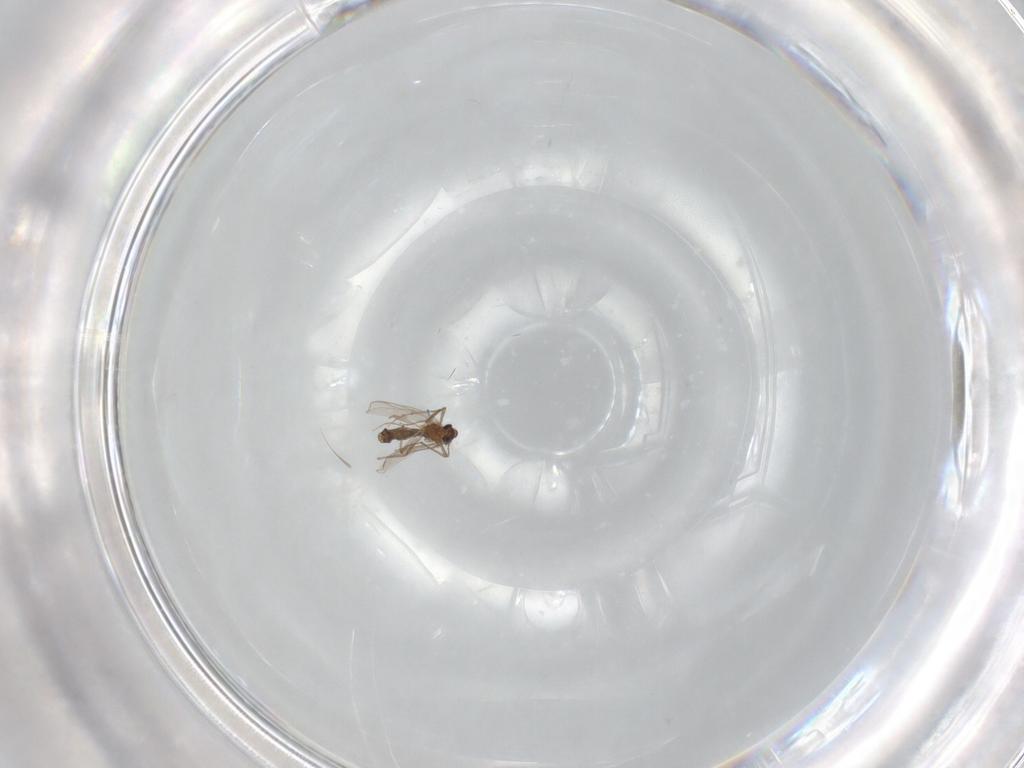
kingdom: Animalia
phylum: Arthropoda
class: Insecta
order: Diptera
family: Chironomidae
